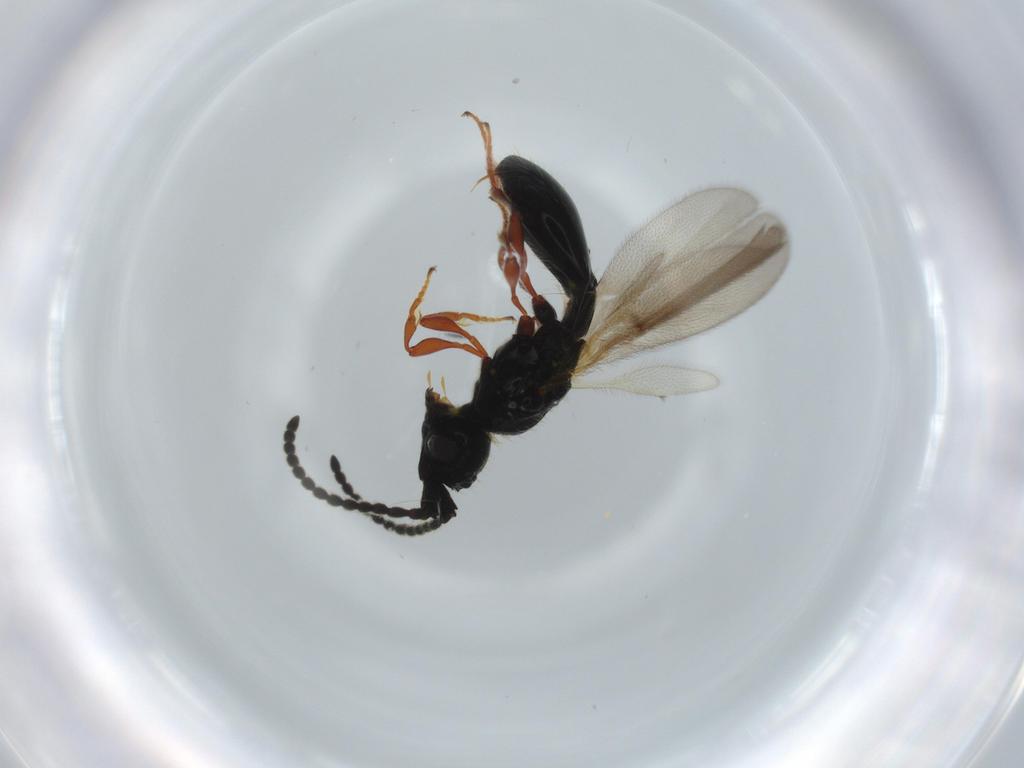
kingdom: Animalia
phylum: Arthropoda
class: Insecta
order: Hymenoptera
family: Diapriidae
